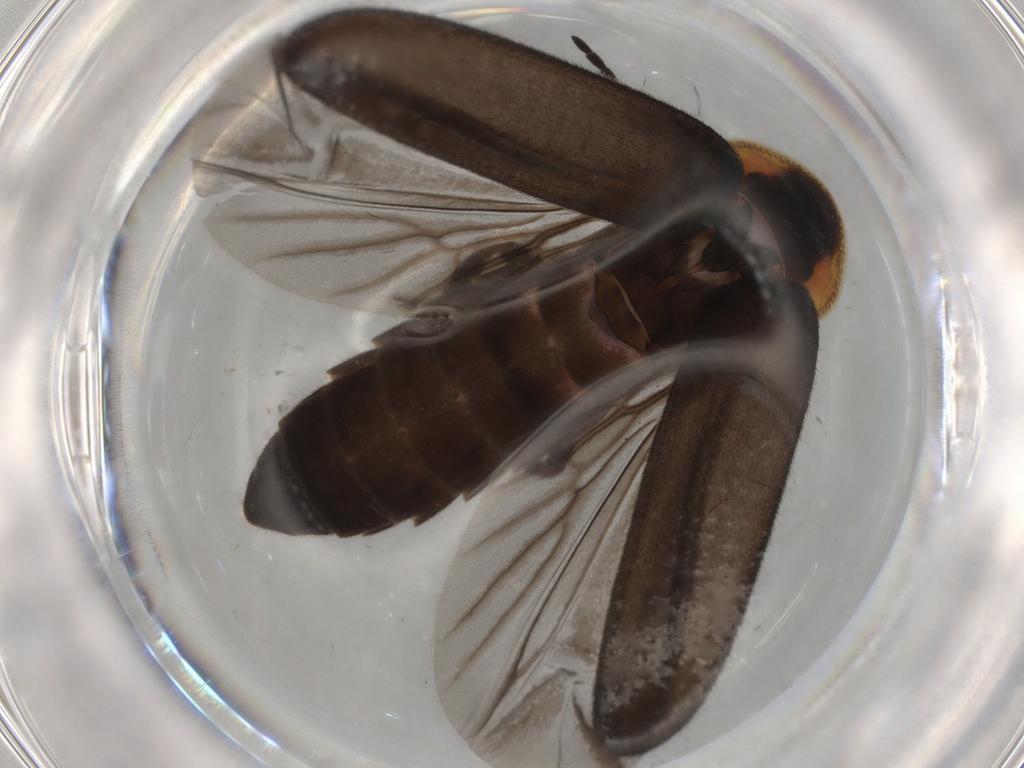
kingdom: Animalia
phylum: Arthropoda
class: Insecta
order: Coleoptera
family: Mordellidae
